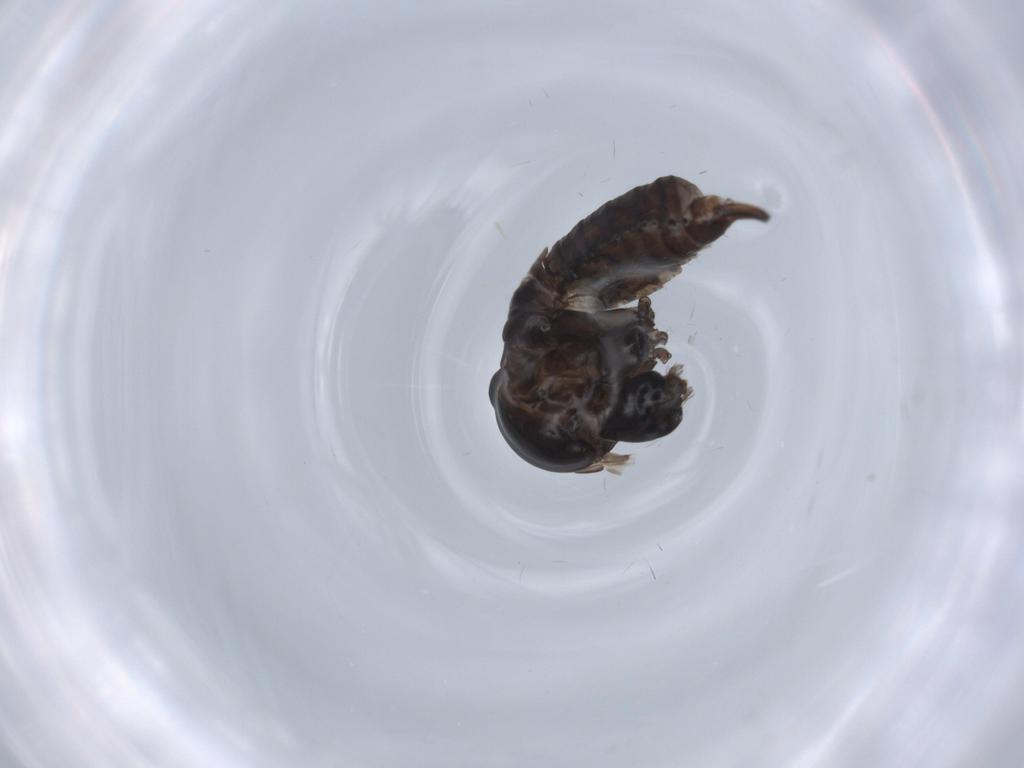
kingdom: Animalia
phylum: Arthropoda
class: Insecta
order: Diptera
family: Psychodidae
